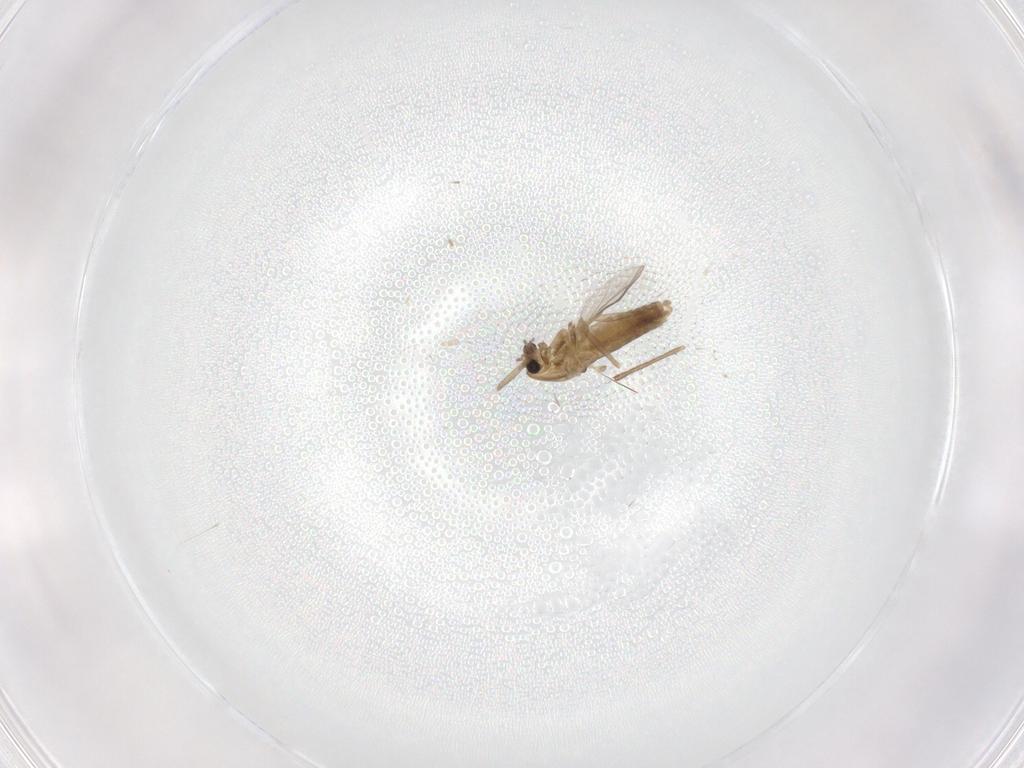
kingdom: Animalia
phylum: Arthropoda
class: Insecta
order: Diptera
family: Chironomidae
